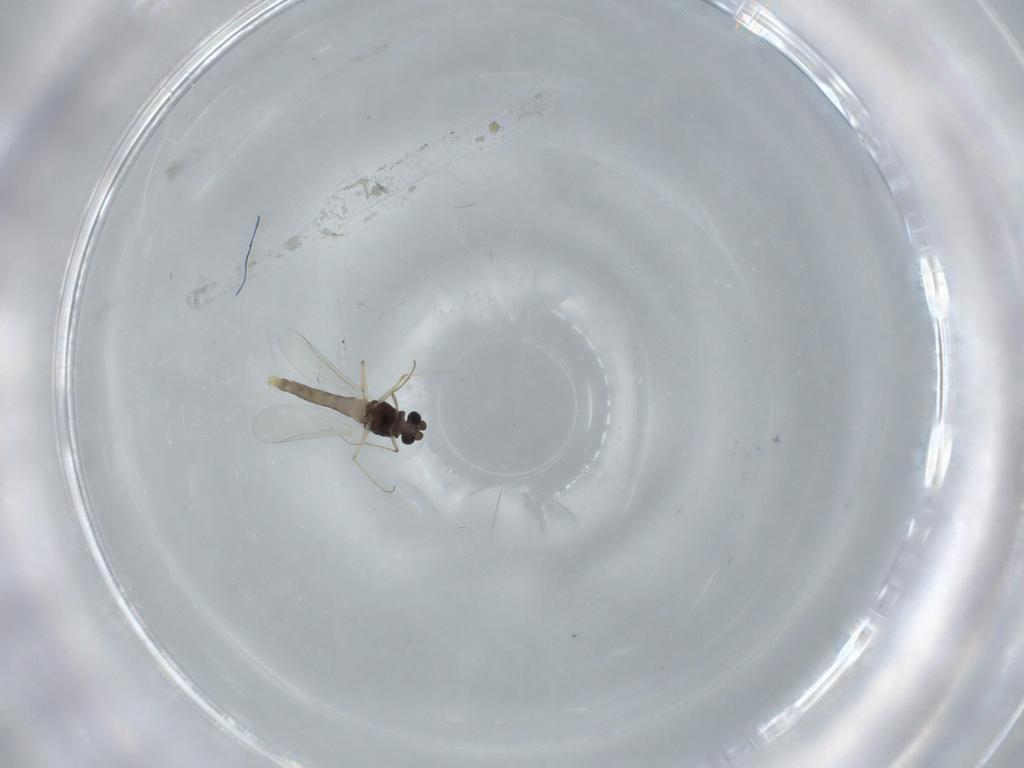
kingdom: Animalia
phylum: Arthropoda
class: Insecta
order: Diptera
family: Chironomidae
